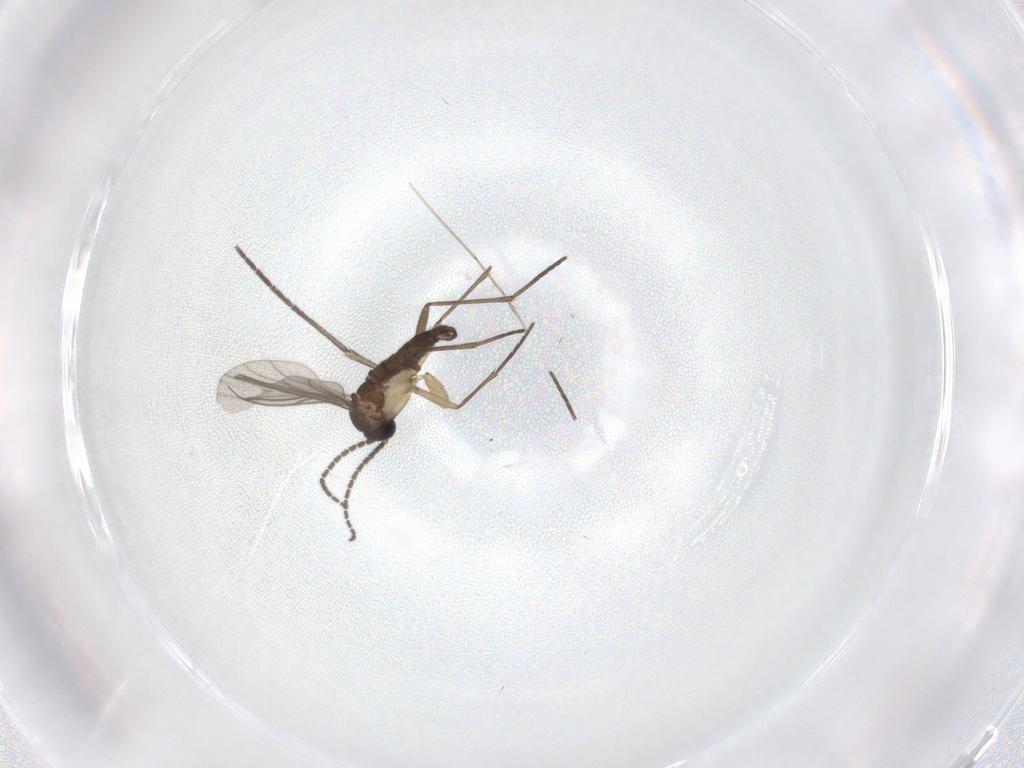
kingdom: Animalia
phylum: Arthropoda
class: Insecta
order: Diptera
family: Sciaridae
